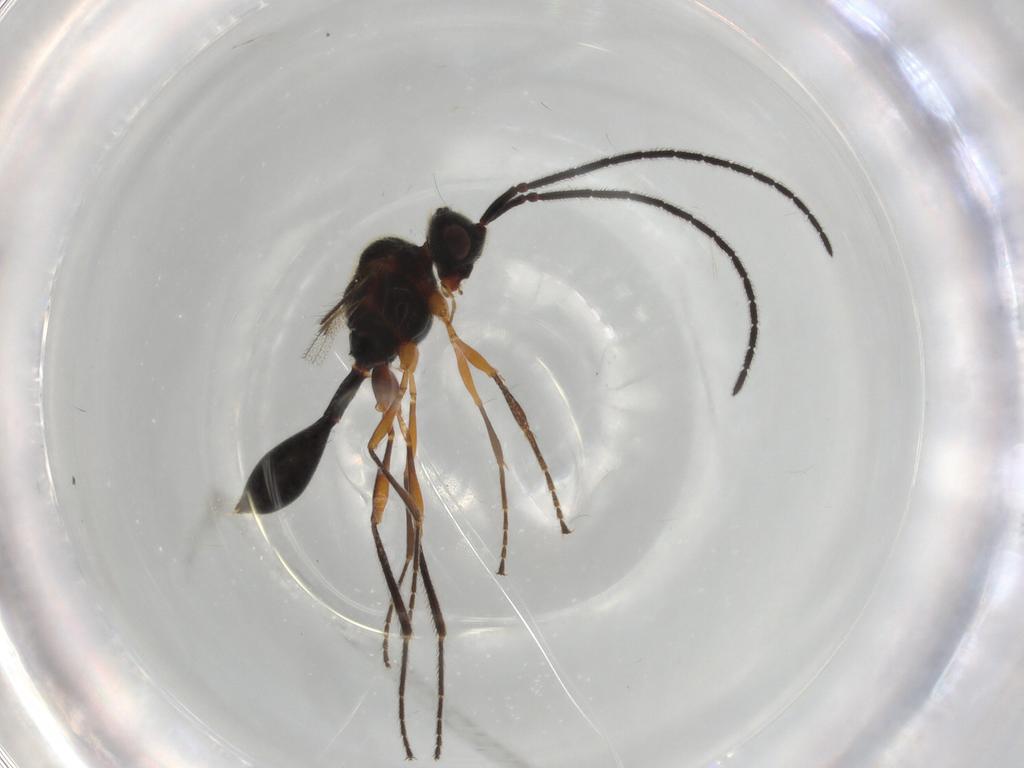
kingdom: Animalia
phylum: Arthropoda
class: Insecta
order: Hymenoptera
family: Diapriidae
